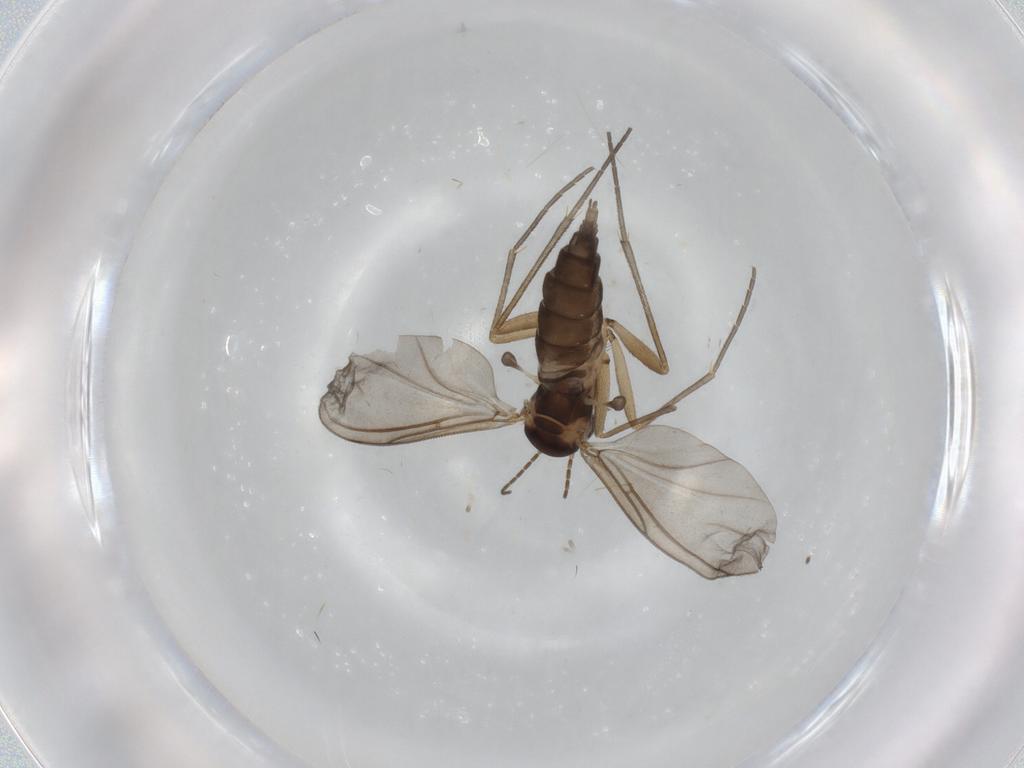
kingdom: Animalia
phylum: Arthropoda
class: Insecta
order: Diptera
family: Sciaridae
